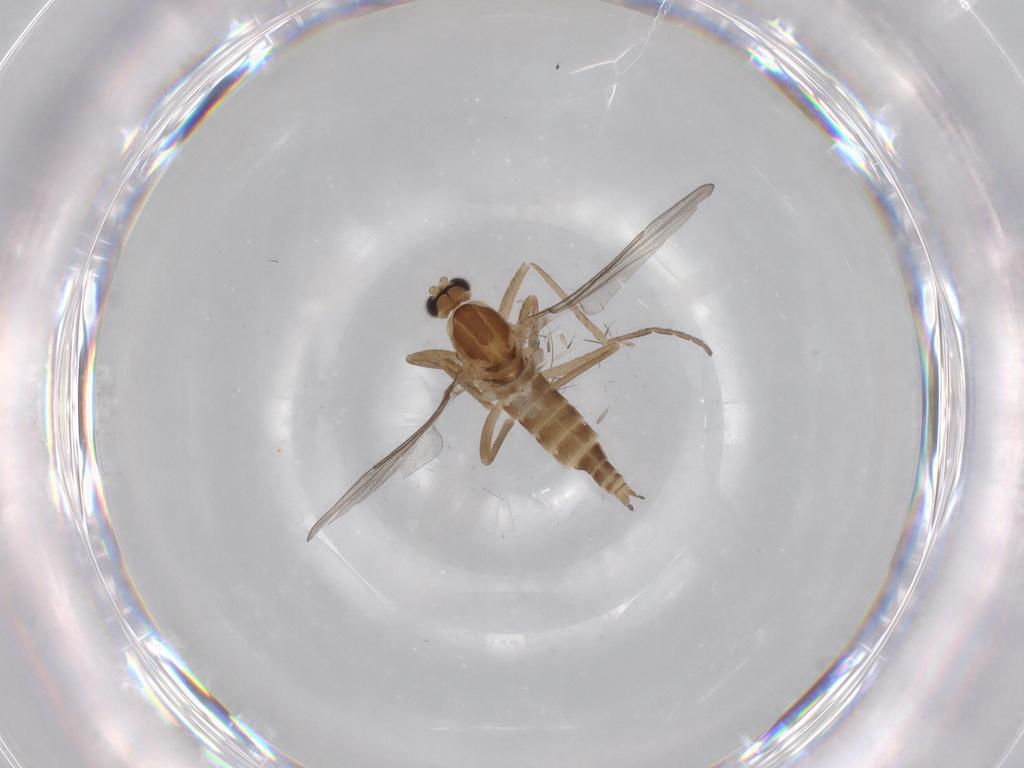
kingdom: Animalia
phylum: Arthropoda
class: Insecta
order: Diptera
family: Cecidomyiidae
